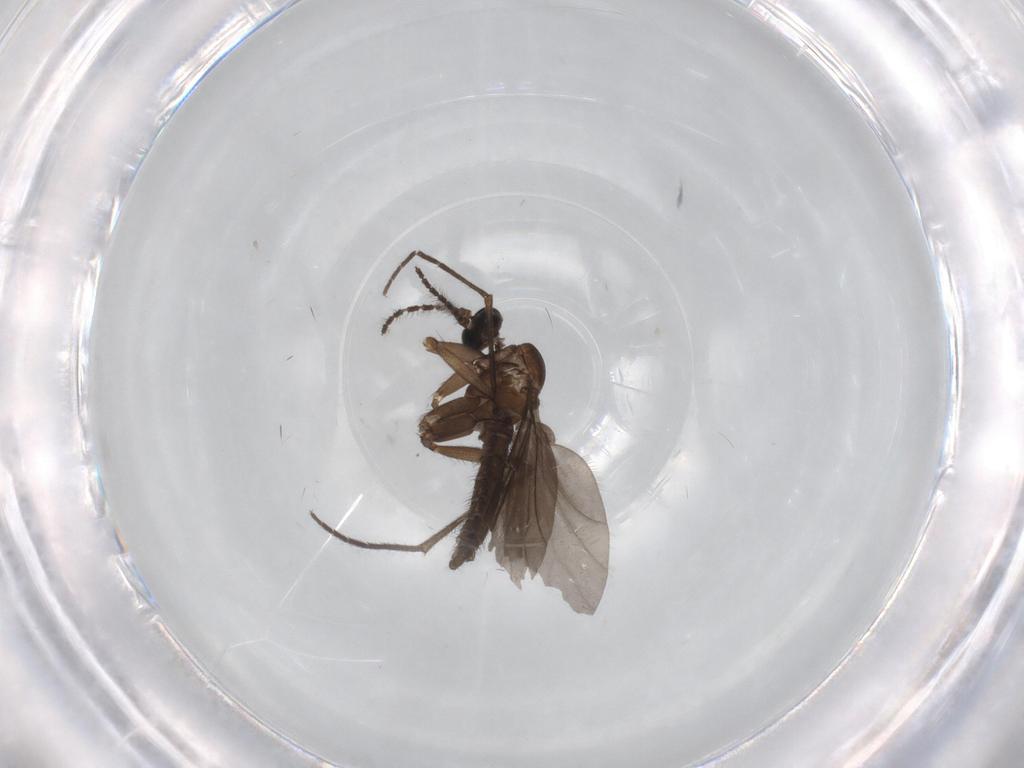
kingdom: Animalia
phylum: Arthropoda
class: Insecta
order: Diptera
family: Sciaridae
